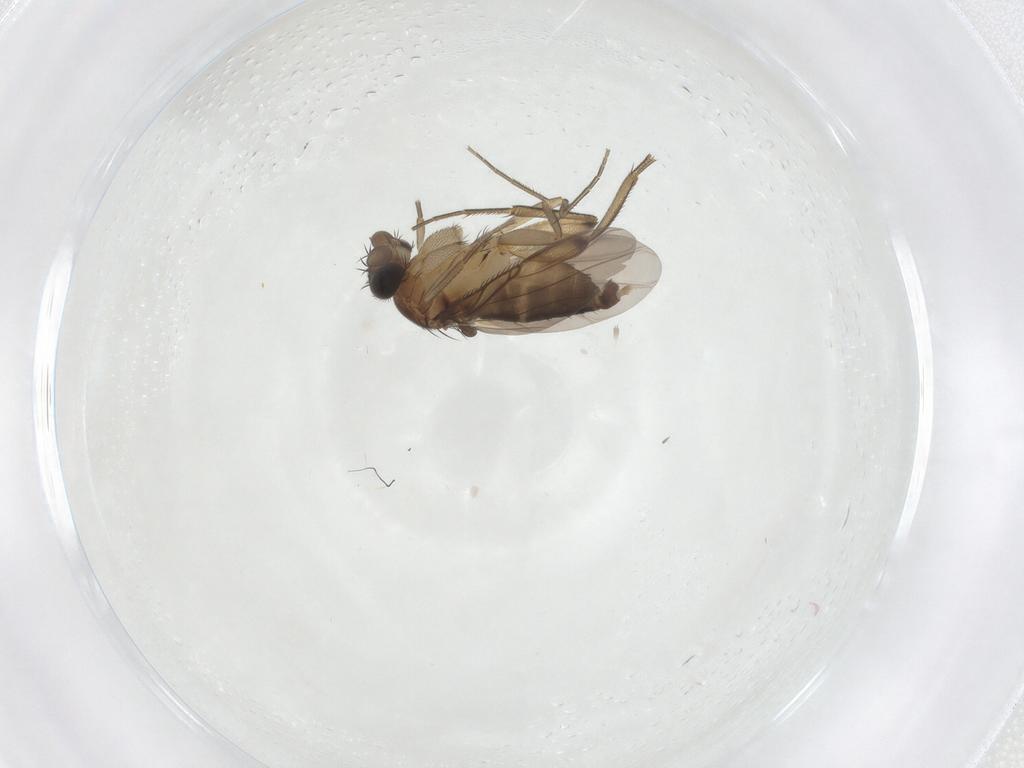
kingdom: Animalia
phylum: Arthropoda
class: Insecta
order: Diptera
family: Phoridae
